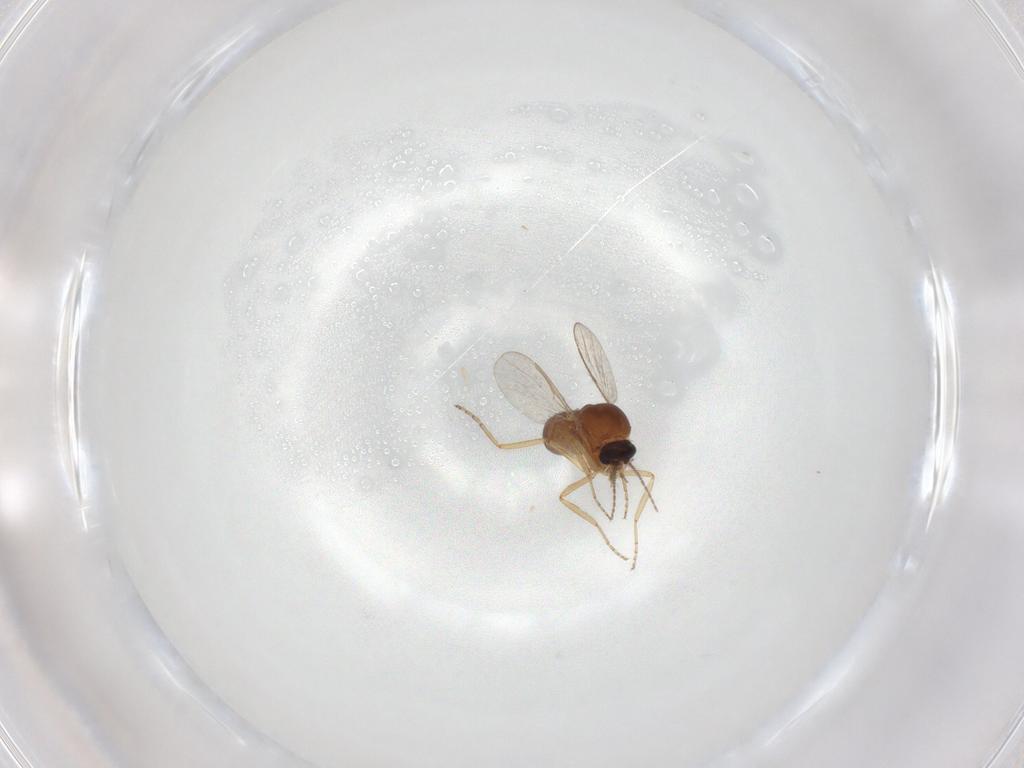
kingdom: Animalia
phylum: Arthropoda
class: Insecta
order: Diptera
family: Ceratopogonidae
